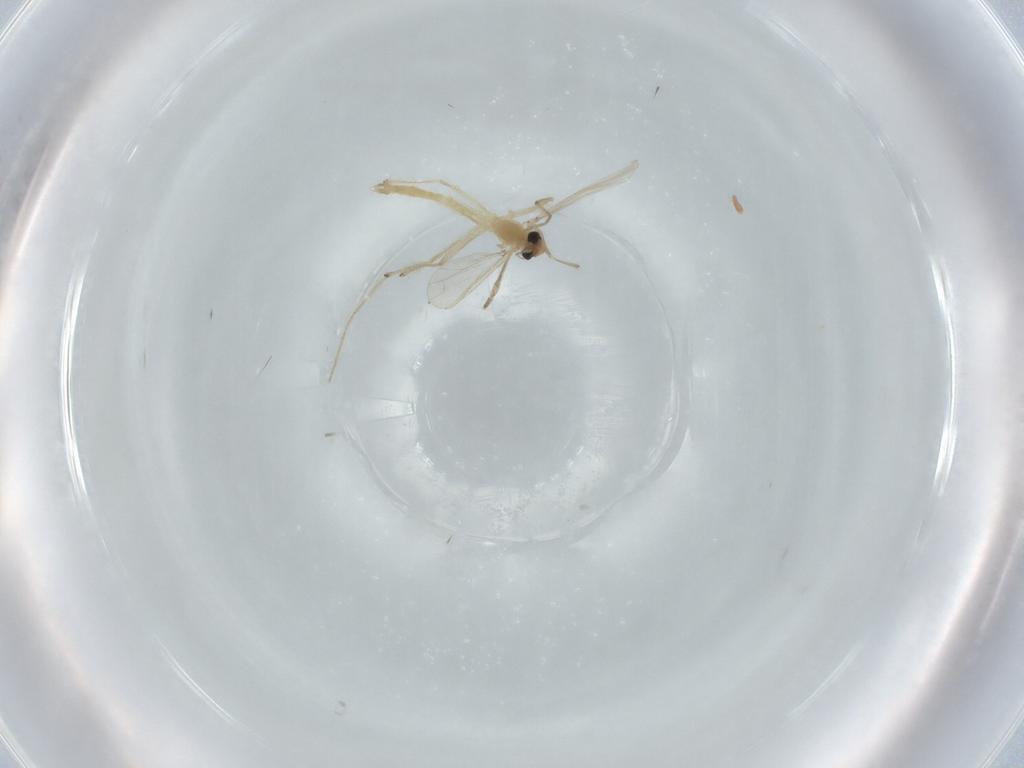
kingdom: Animalia
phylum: Arthropoda
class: Insecta
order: Diptera
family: Chironomidae
